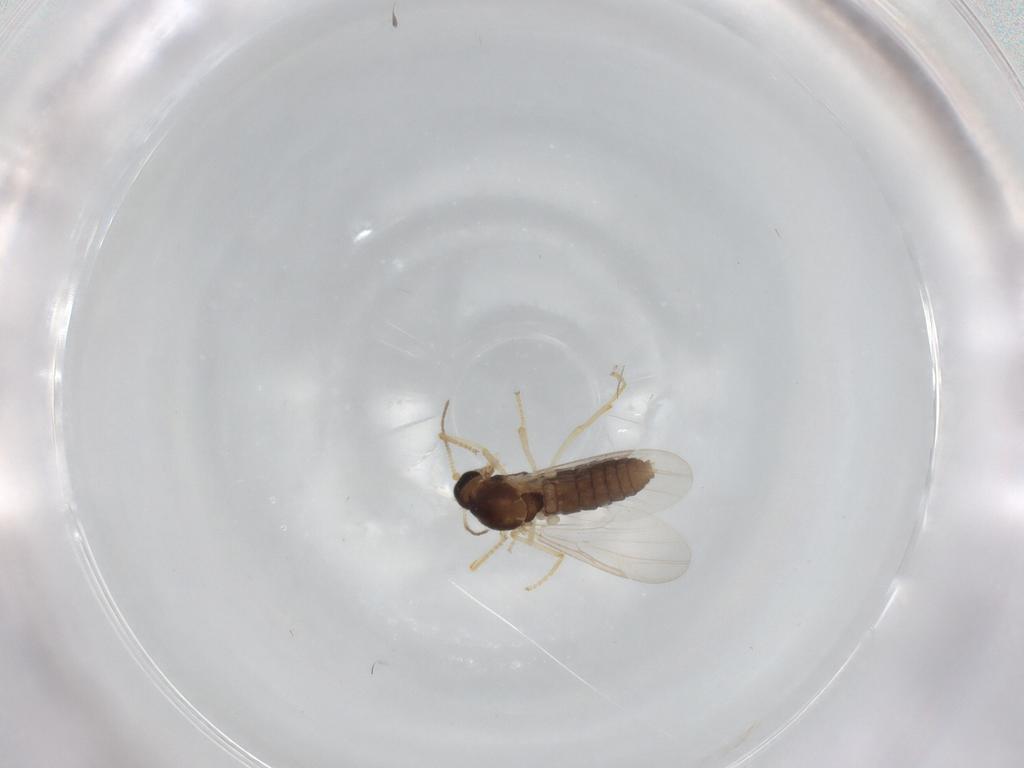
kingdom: Animalia
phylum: Arthropoda
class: Insecta
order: Diptera
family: Ceratopogonidae
